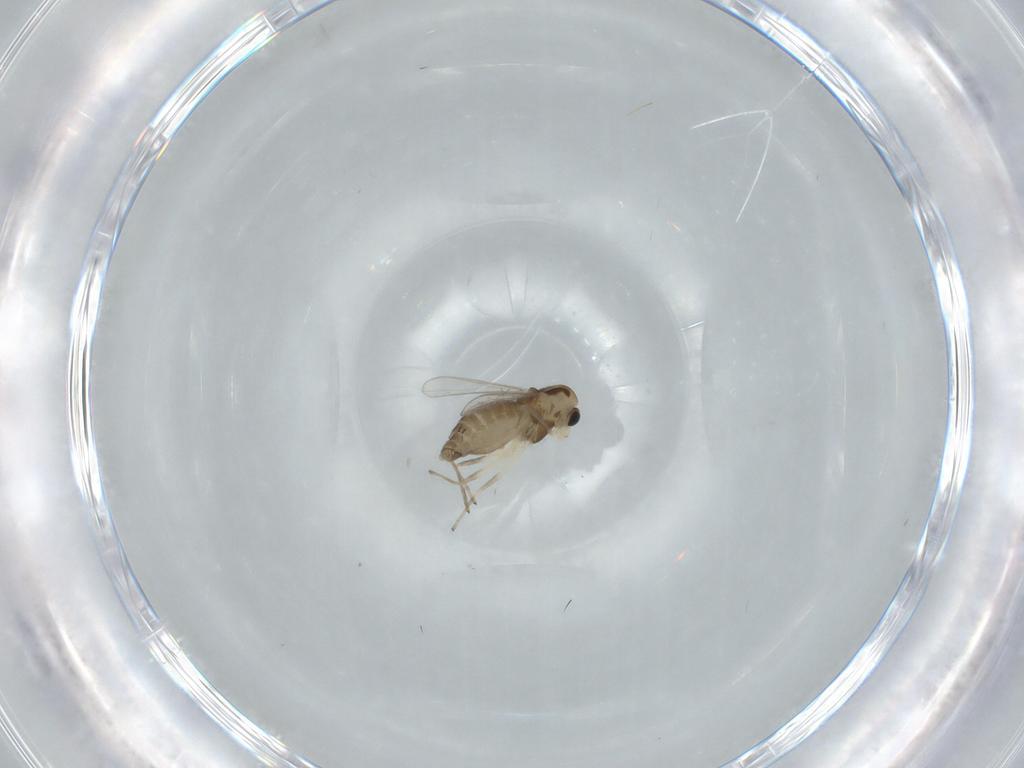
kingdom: Animalia
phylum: Arthropoda
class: Insecta
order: Diptera
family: Chironomidae
